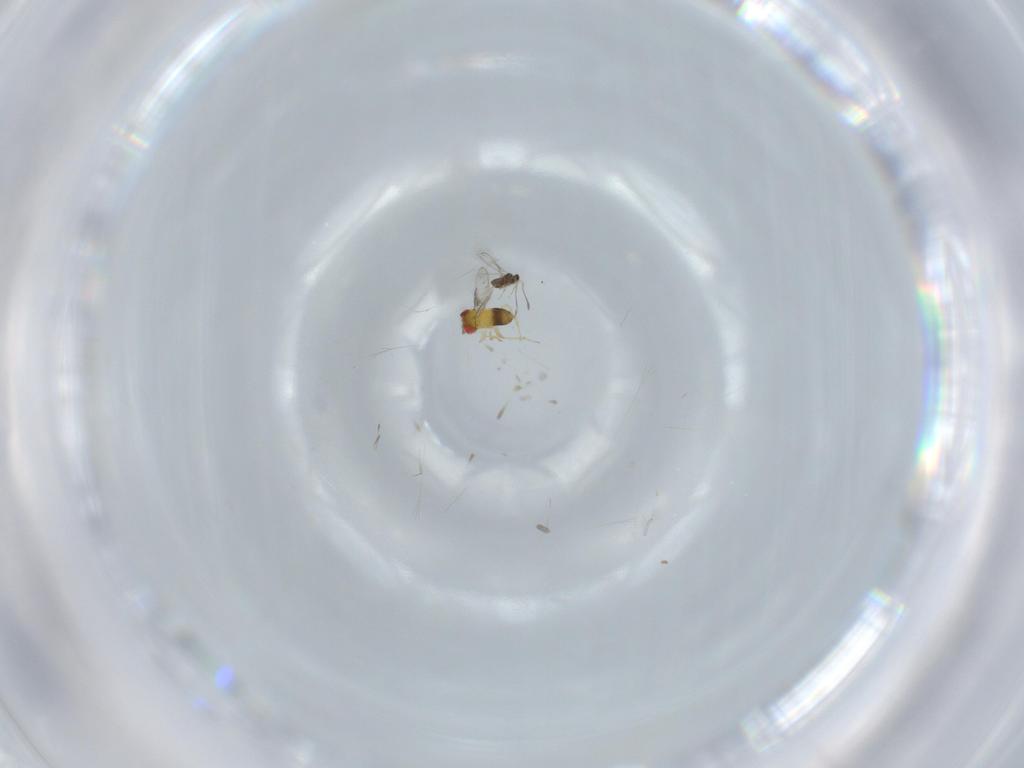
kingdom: Animalia
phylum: Arthropoda
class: Insecta
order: Hymenoptera
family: Trichogrammatidae
